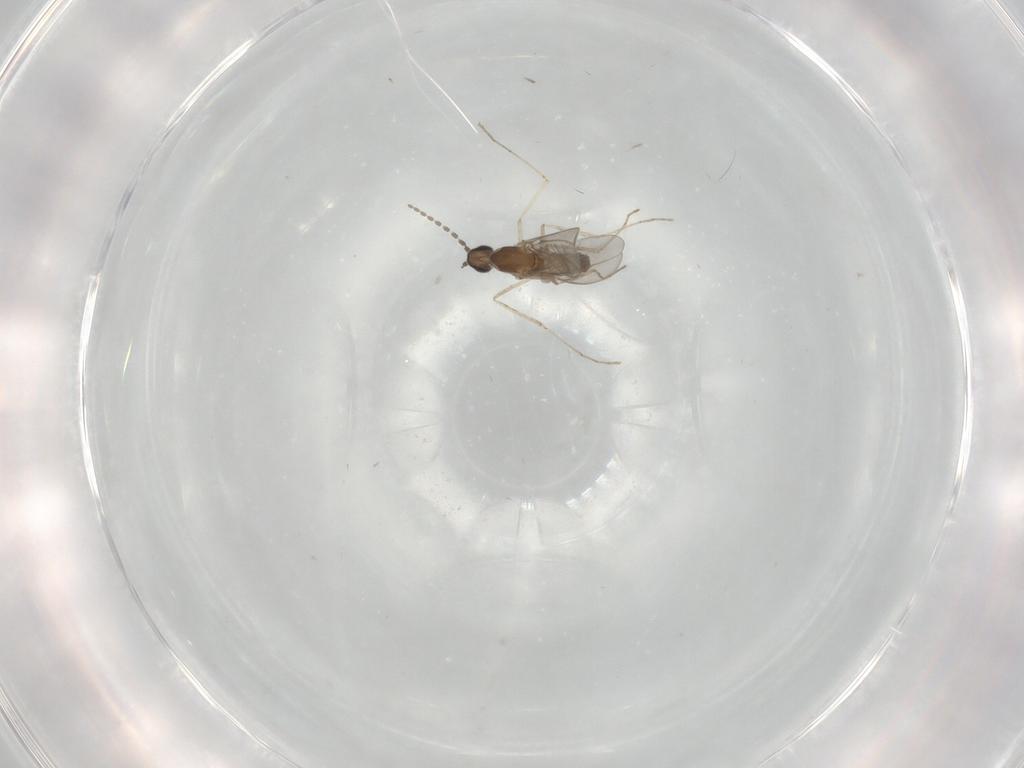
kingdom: Animalia
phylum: Arthropoda
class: Insecta
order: Diptera
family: Cecidomyiidae
